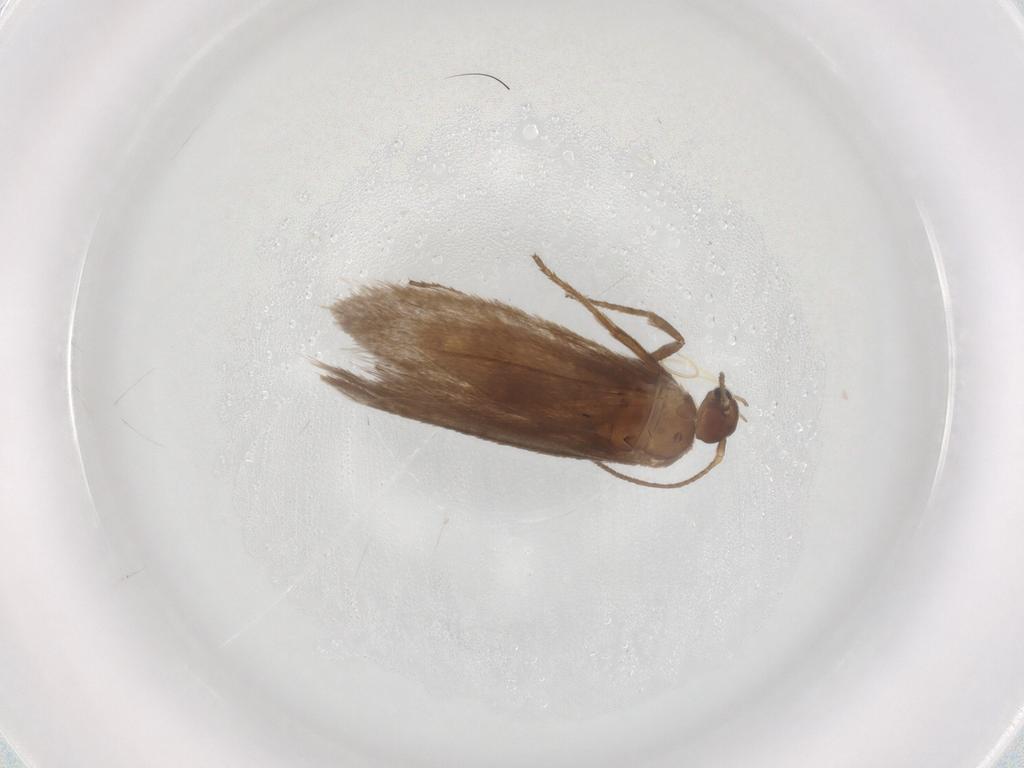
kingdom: Animalia
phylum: Arthropoda
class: Insecta
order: Lepidoptera
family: Limacodidae
